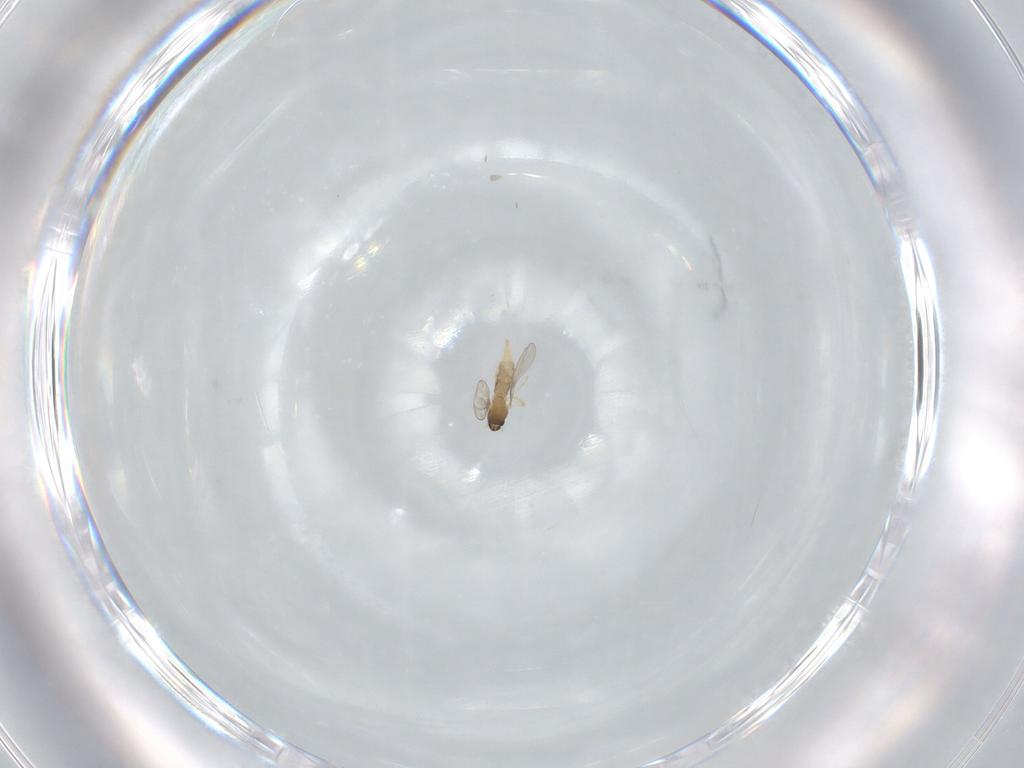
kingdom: Animalia
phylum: Arthropoda
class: Insecta
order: Diptera
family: Cecidomyiidae
